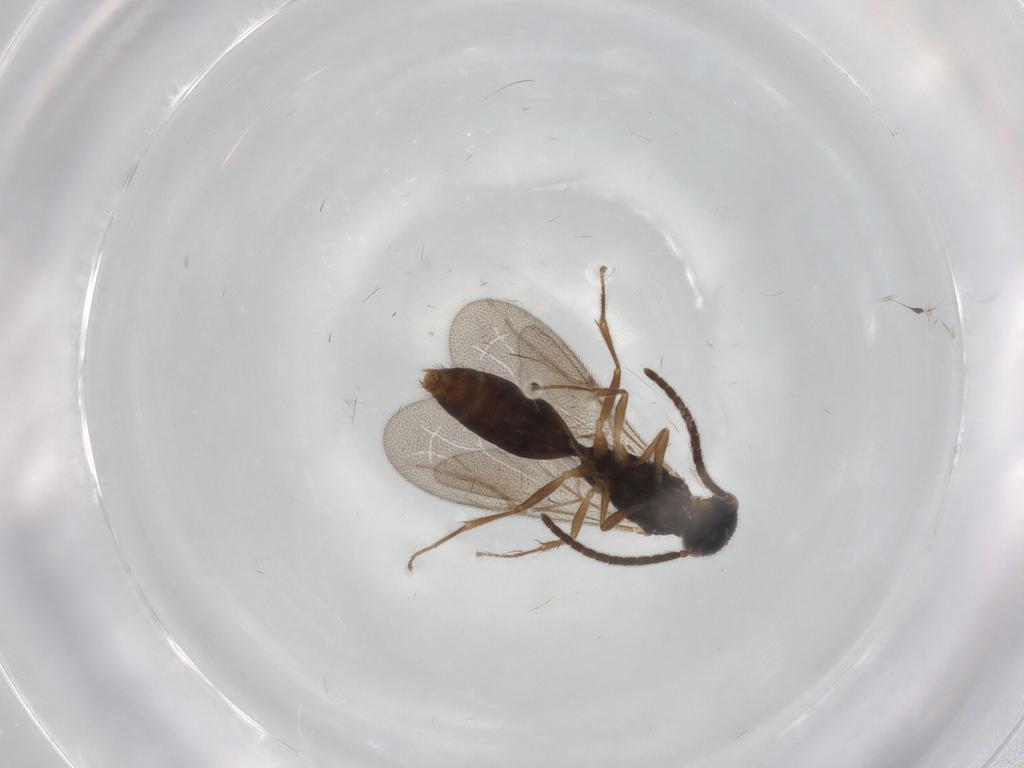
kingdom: Animalia
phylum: Arthropoda
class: Insecta
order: Hymenoptera
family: Bethylidae
